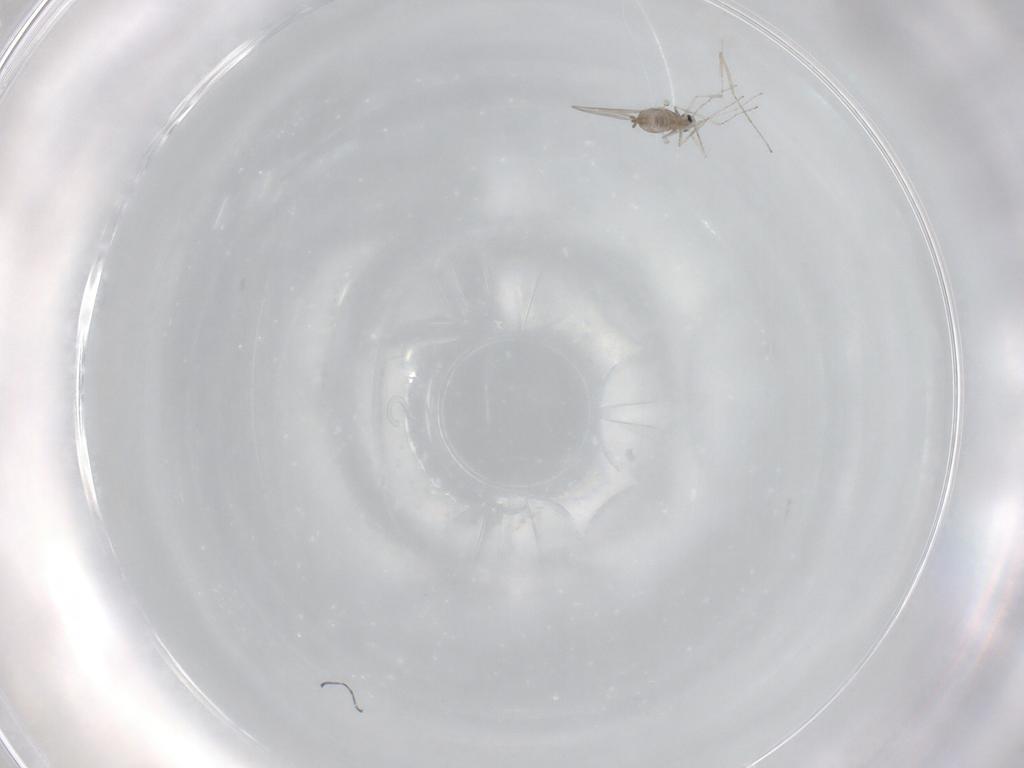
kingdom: Animalia
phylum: Arthropoda
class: Insecta
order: Diptera
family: Cecidomyiidae
